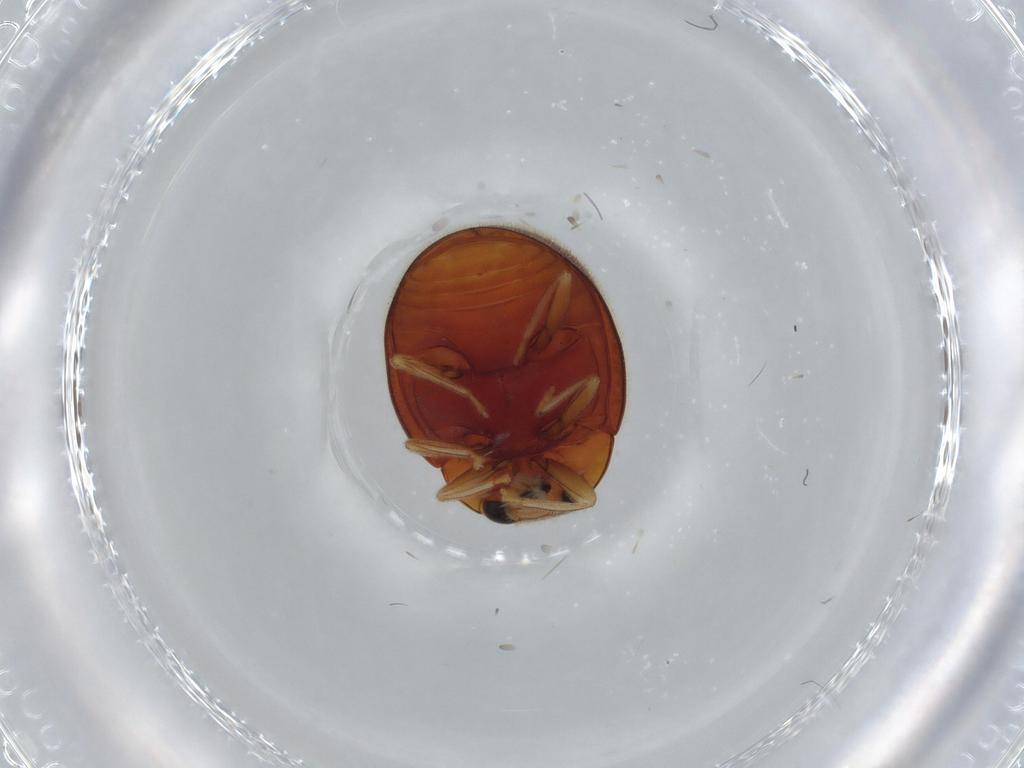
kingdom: Animalia
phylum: Arthropoda
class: Insecta
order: Coleoptera
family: Coccinellidae
